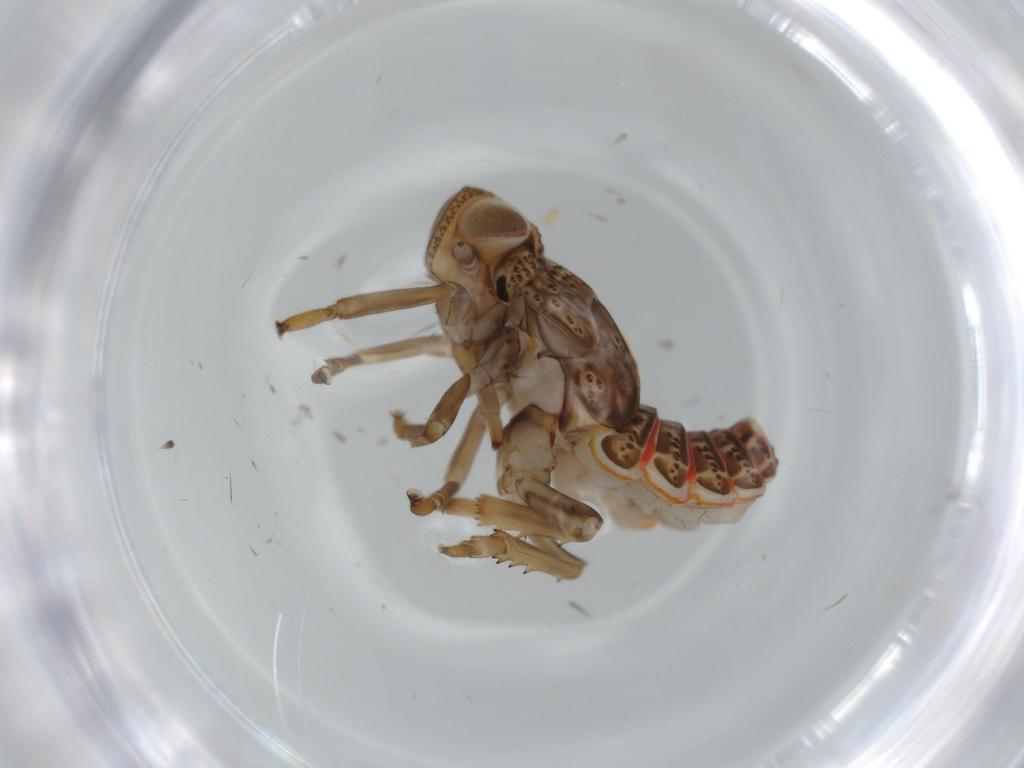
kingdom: Animalia
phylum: Arthropoda
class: Insecta
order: Hemiptera
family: Issidae
